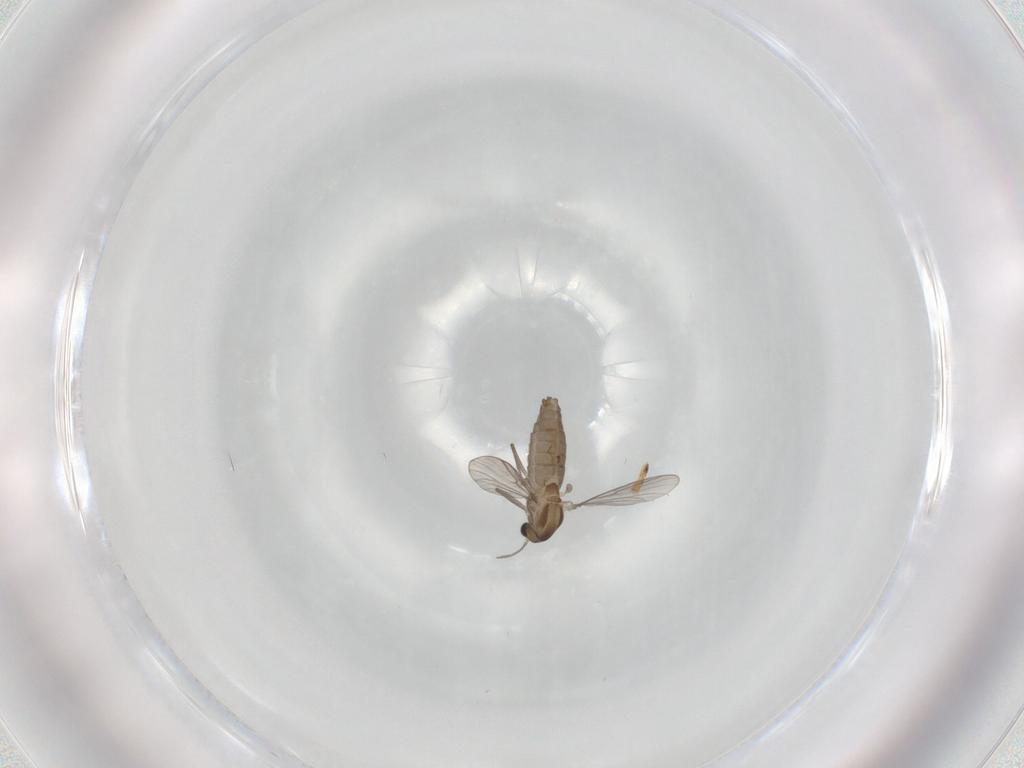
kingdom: Animalia
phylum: Arthropoda
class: Insecta
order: Diptera
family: Chironomidae
